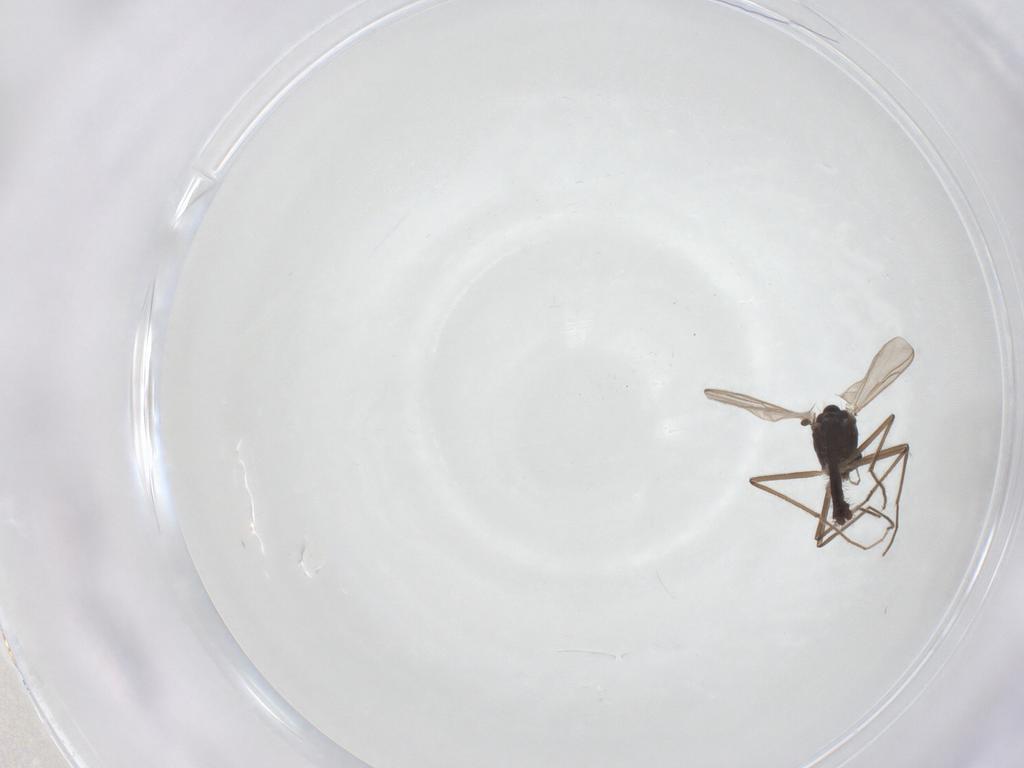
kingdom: Animalia
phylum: Arthropoda
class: Insecta
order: Diptera
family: Chironomidae
